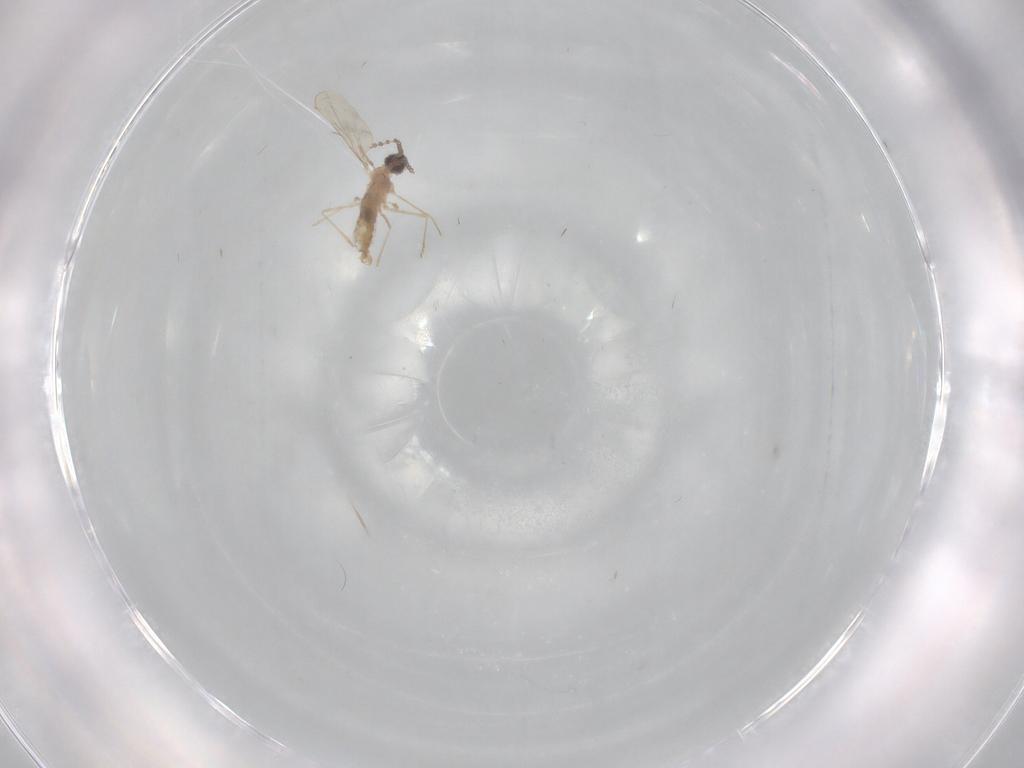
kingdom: Animalia
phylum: Arthropoda
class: Insecta
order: Diptera
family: Cecidomyiidae
